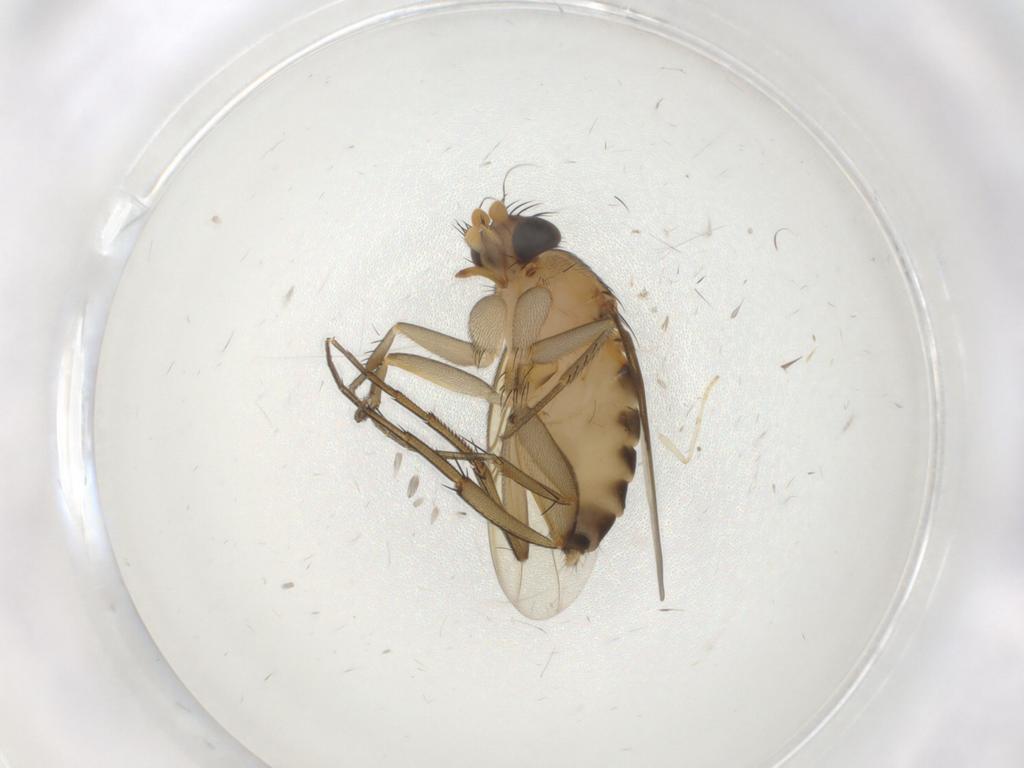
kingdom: Animalia
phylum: Arthropoda
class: Insecta
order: Diptera
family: Phoridae
